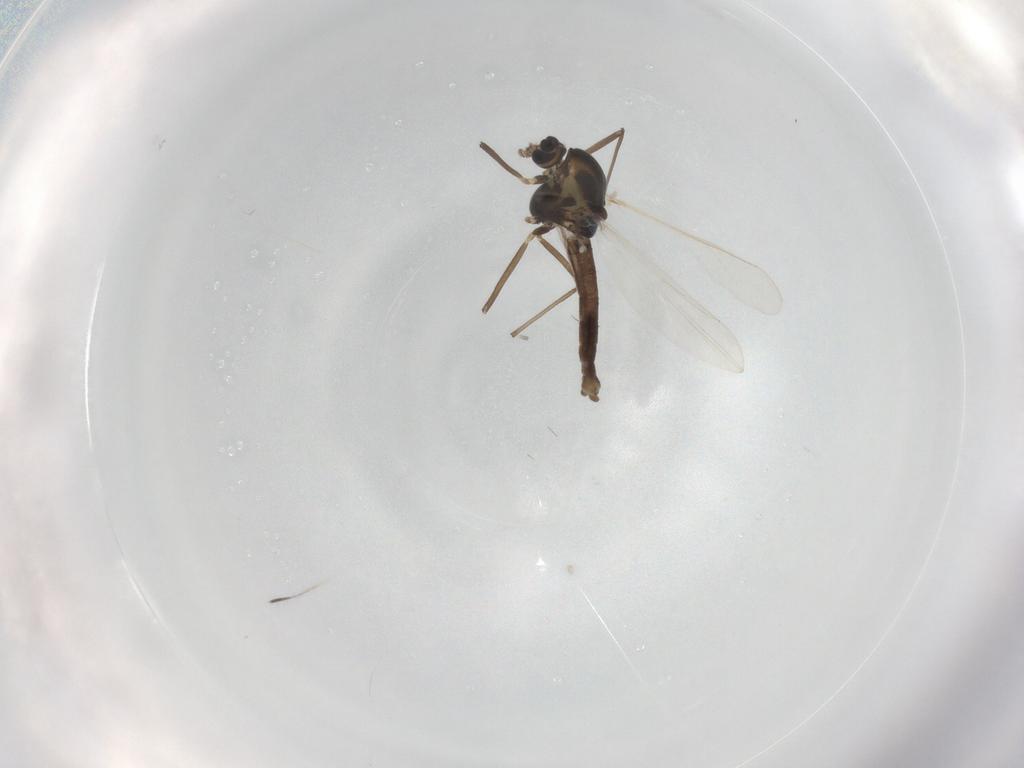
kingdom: Animalia
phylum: Arthropoda
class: Insecta
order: Diptera
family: Chironomidae
